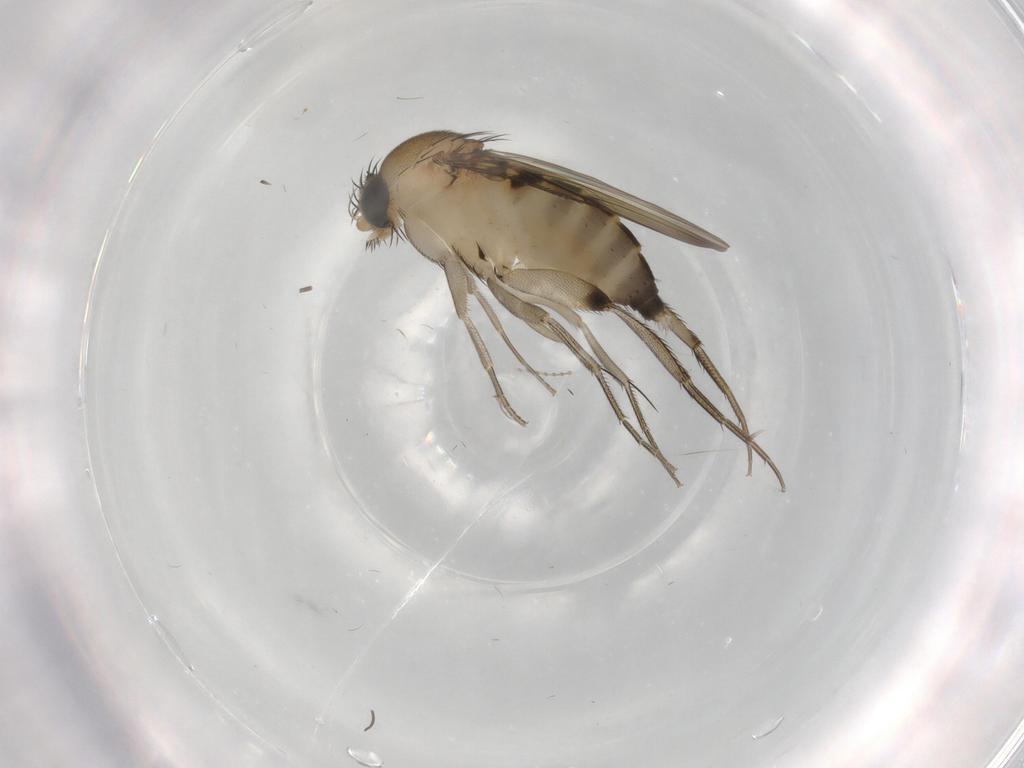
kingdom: Animalia
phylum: Arthropoda
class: Insecta
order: Diptera
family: Phoridae
